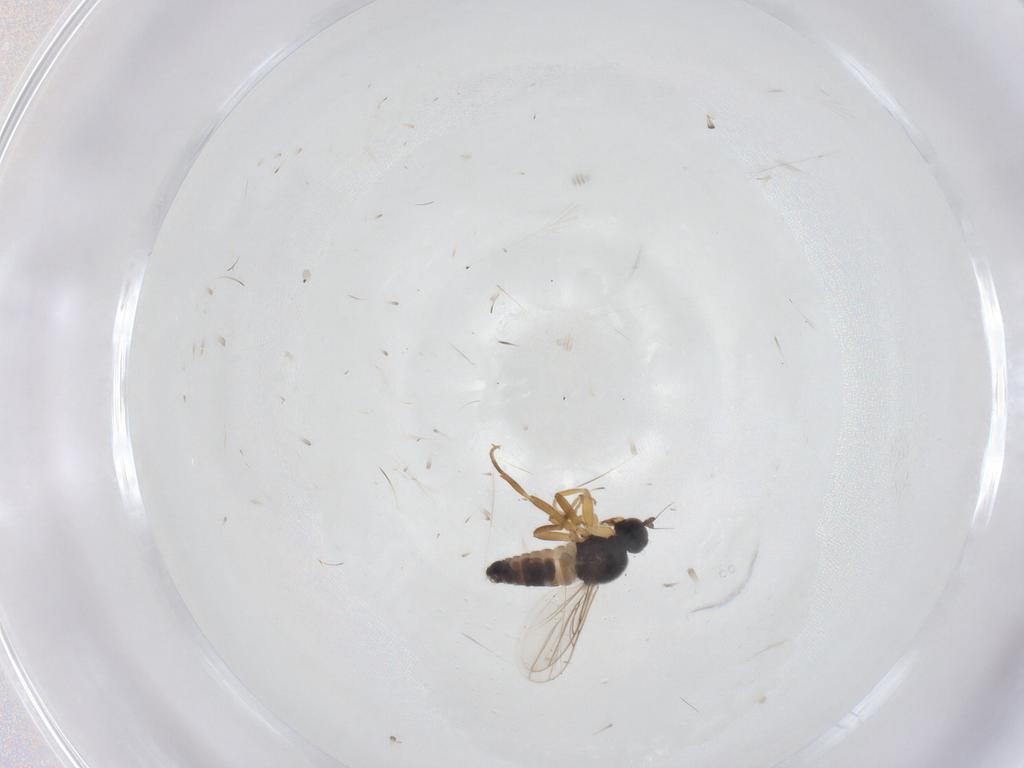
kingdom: Animalia
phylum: Arthropoda
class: Insecta
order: Diptera
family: Hybotidae
